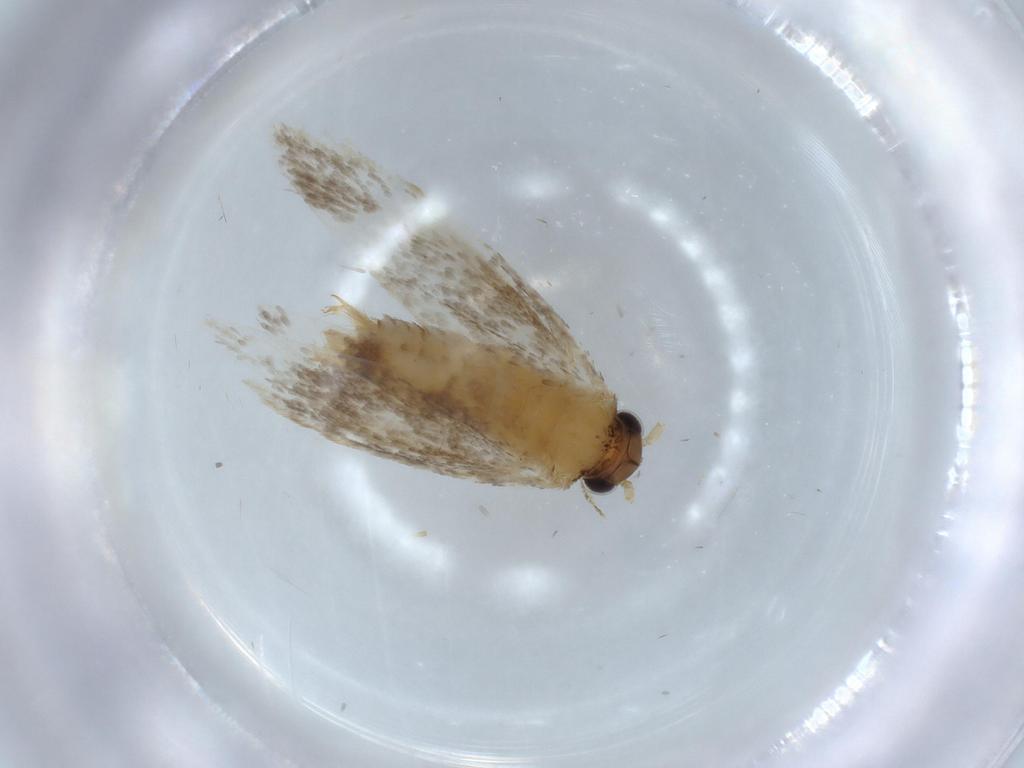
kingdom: Animalia
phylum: Arthropoda
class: Insecta
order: Lepidoptera
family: Tineidae
